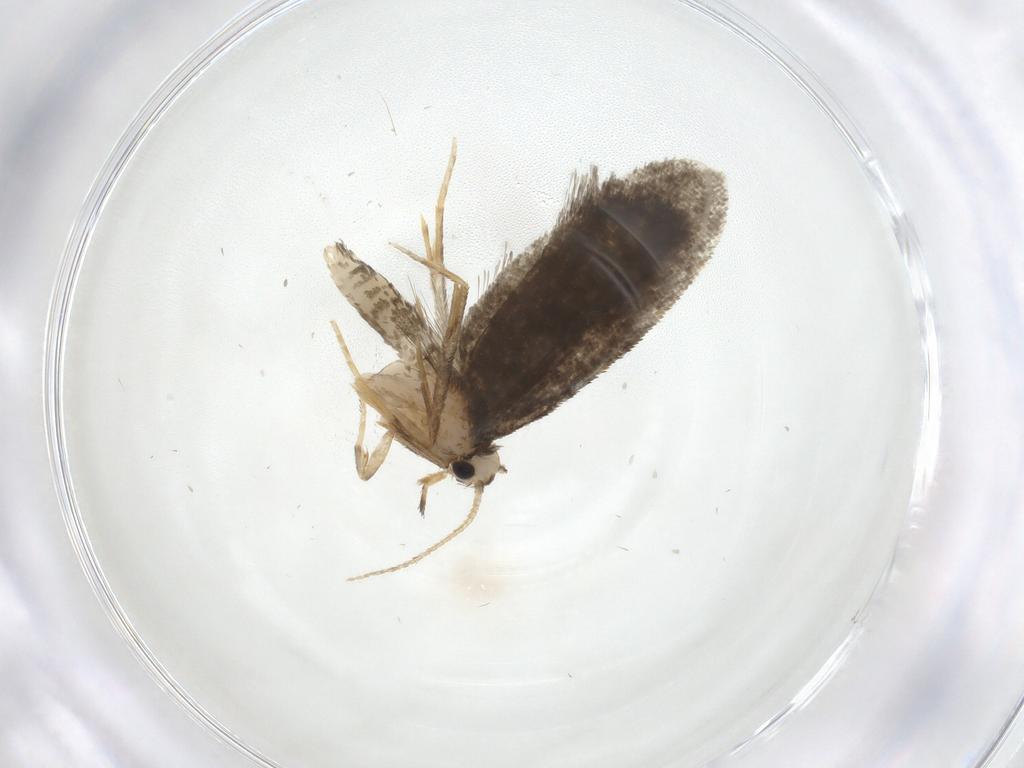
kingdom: Animalia
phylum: Arthropoda
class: Insecta
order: Lepidoptera
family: Psychidae
